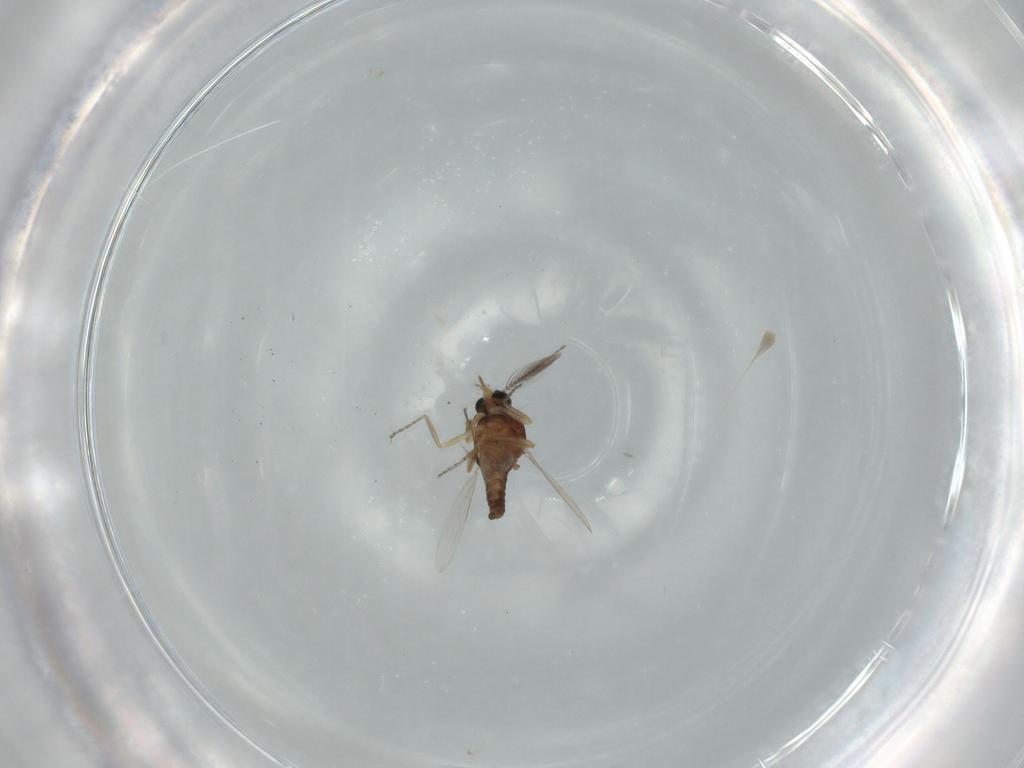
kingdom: Animalia
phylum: Arthropoda
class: Insecta
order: Diptera
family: Ceratopogonidae
